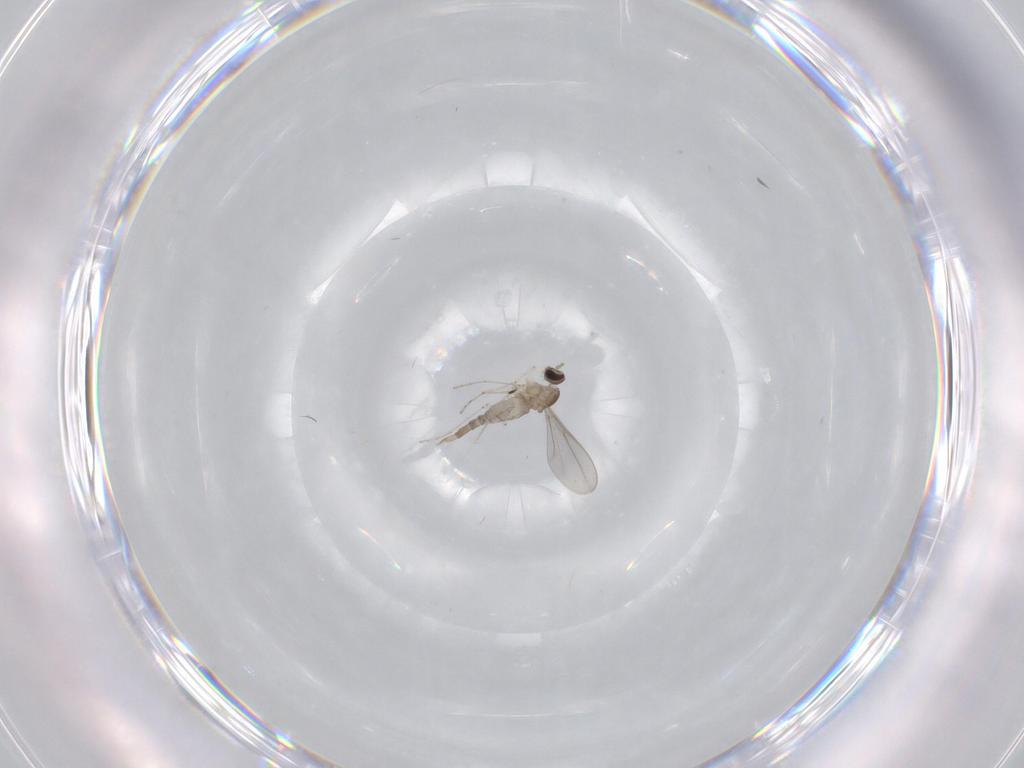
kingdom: Animalia
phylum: Arthropoda
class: Insecta
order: Diptera
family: Cecidomyiidae
